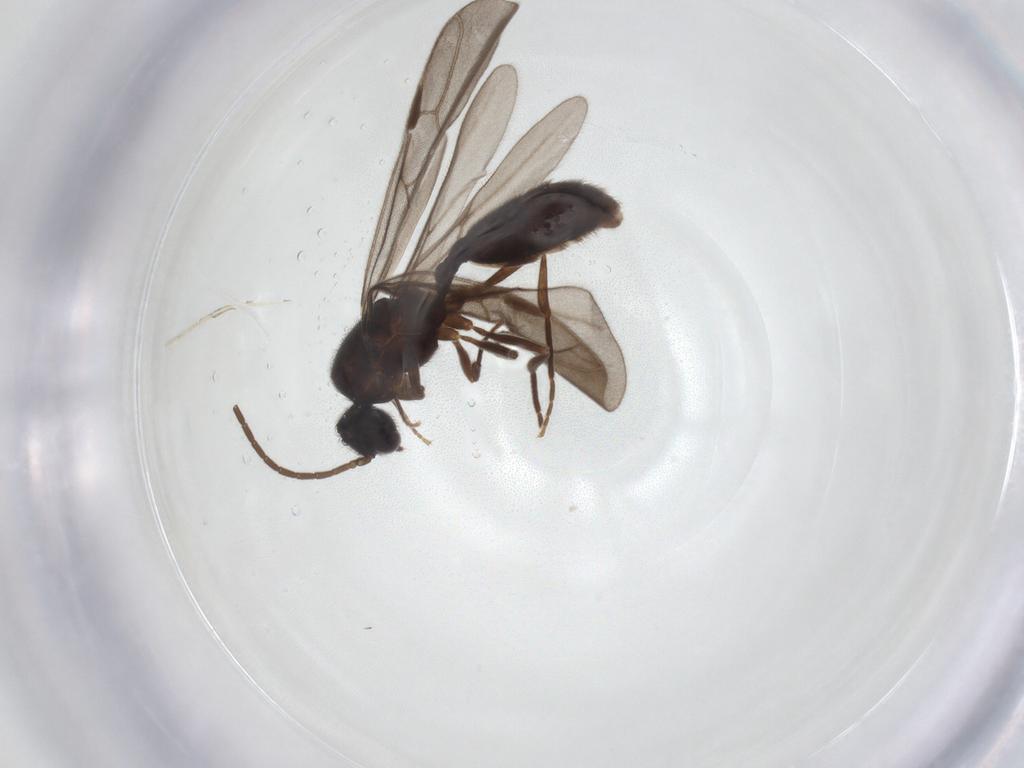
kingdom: Animalia
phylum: Arthropoda
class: Insecta
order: Hymenoptera
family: Formicidae
